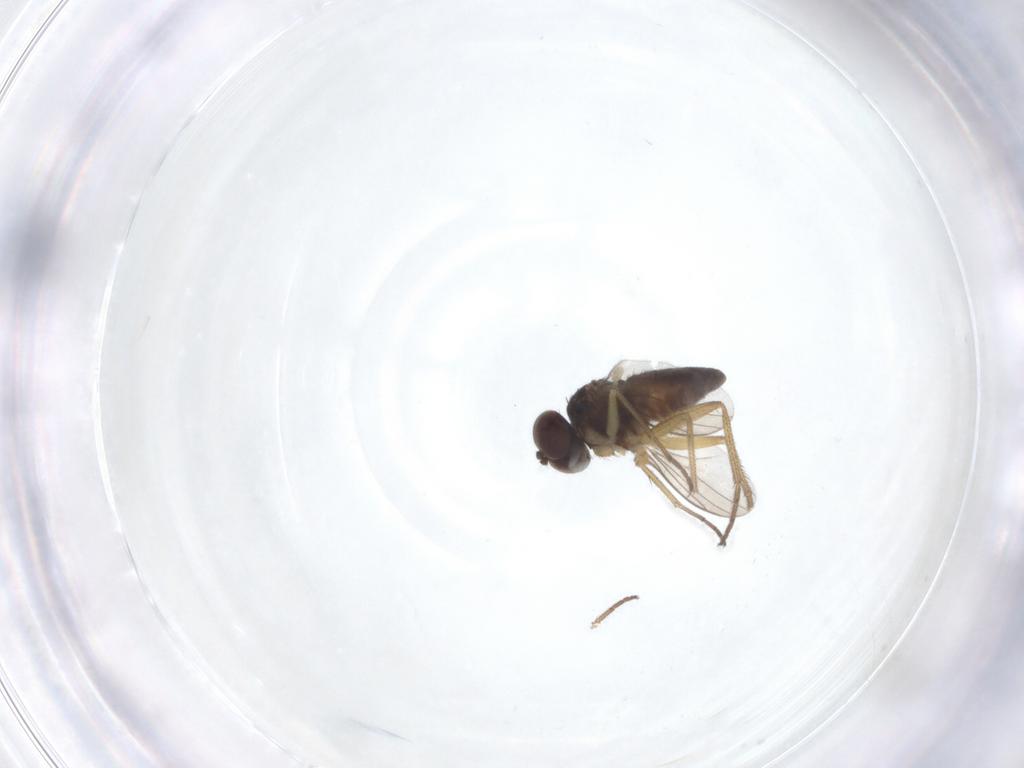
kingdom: Animalia
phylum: Arthropoda
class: Insecta
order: Diptera
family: Dolichopodidae
